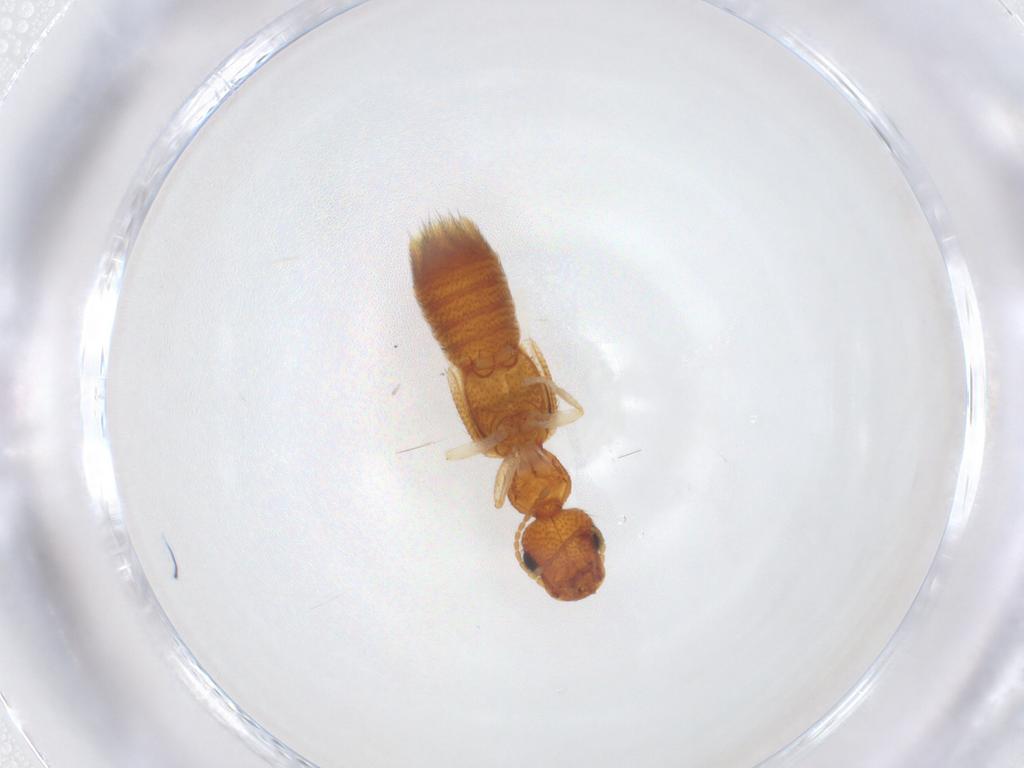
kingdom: Animalia
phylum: Arthropoda
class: Insecta
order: Coleoptera
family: Staphylinidae
